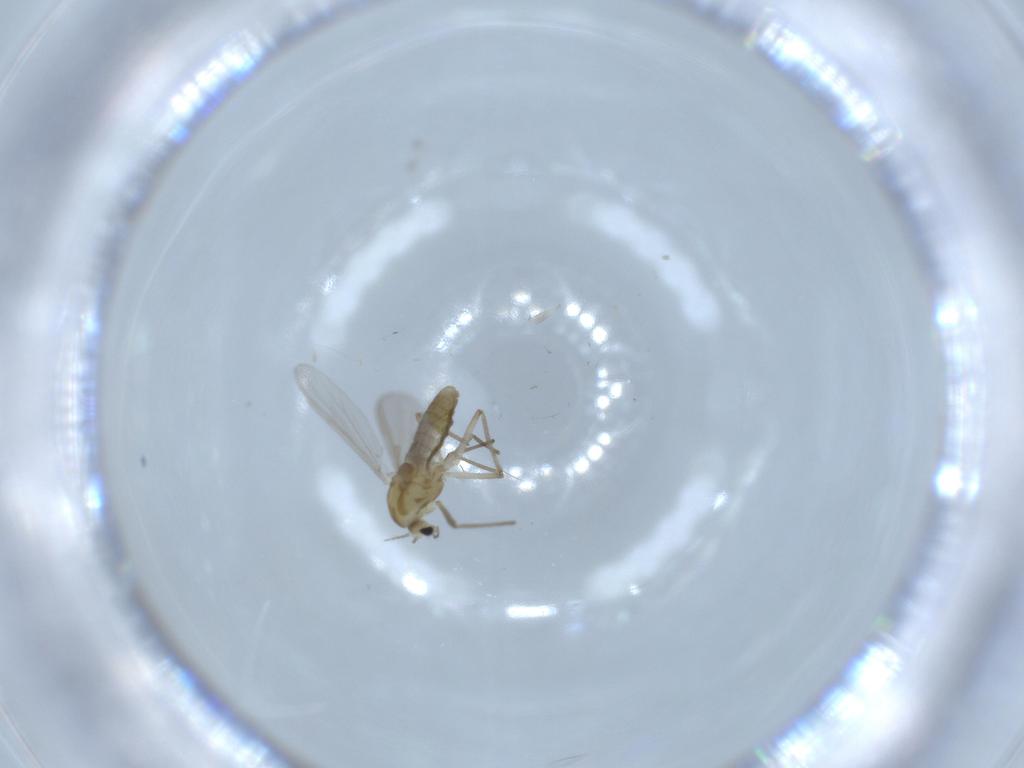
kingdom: Animalia
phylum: Arthropoda
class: Insecta
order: Diptera
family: Chironomidae
